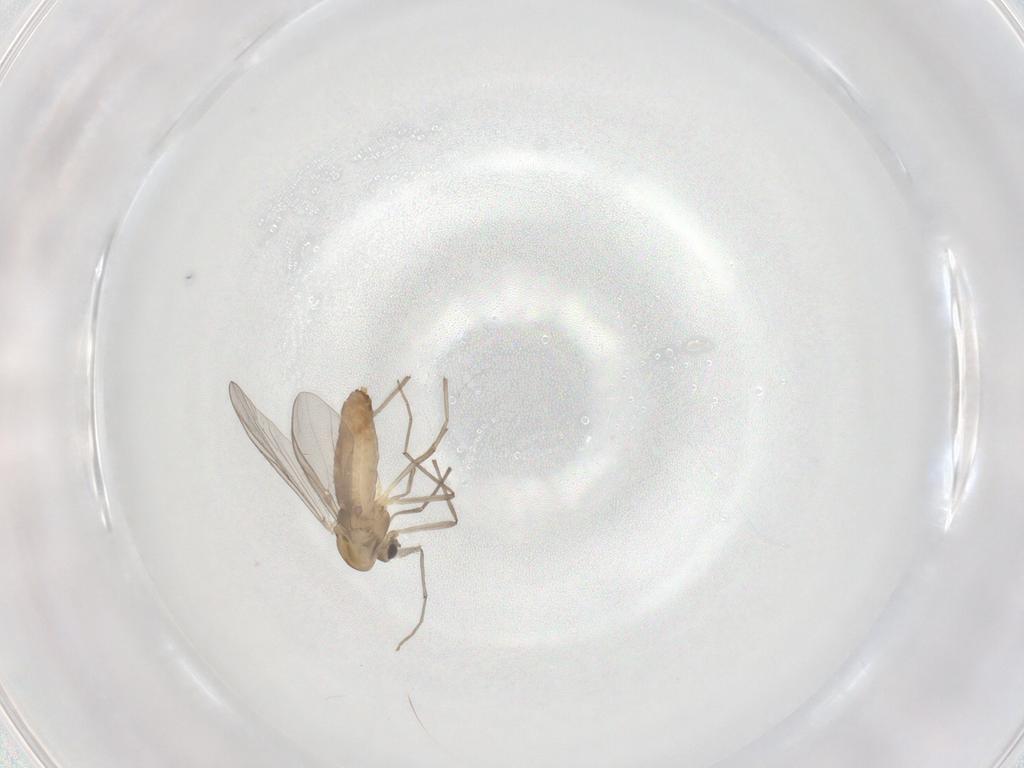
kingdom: Animalia
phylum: Arthropoda
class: Insecta
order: Diptera
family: Chironomidae
